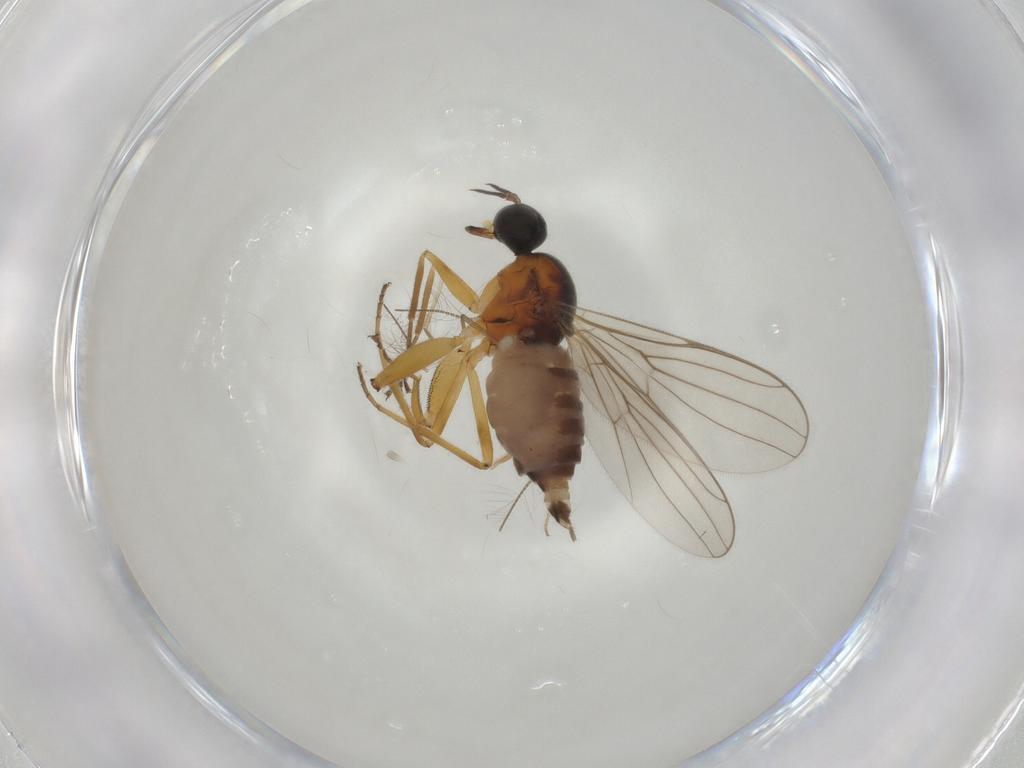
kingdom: Animalia
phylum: Arthropoda
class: Insecta
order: Diptera
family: Hybotidae
